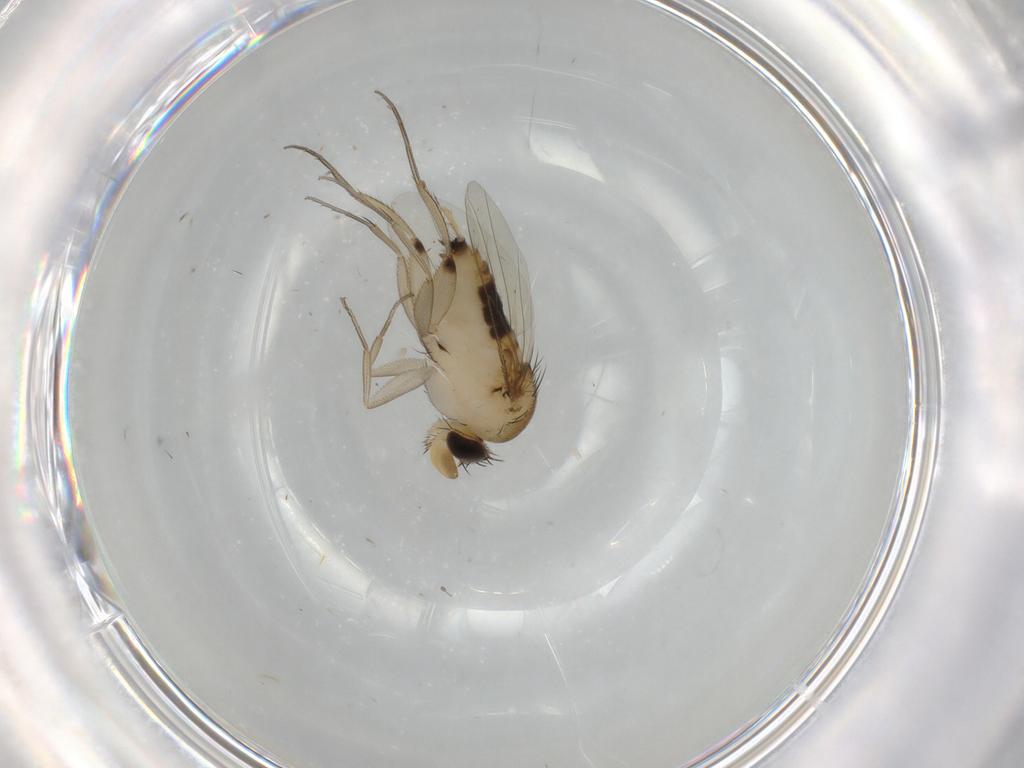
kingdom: Animalia
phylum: Arthropoda
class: Insecta
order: Diptera
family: Phoridae
